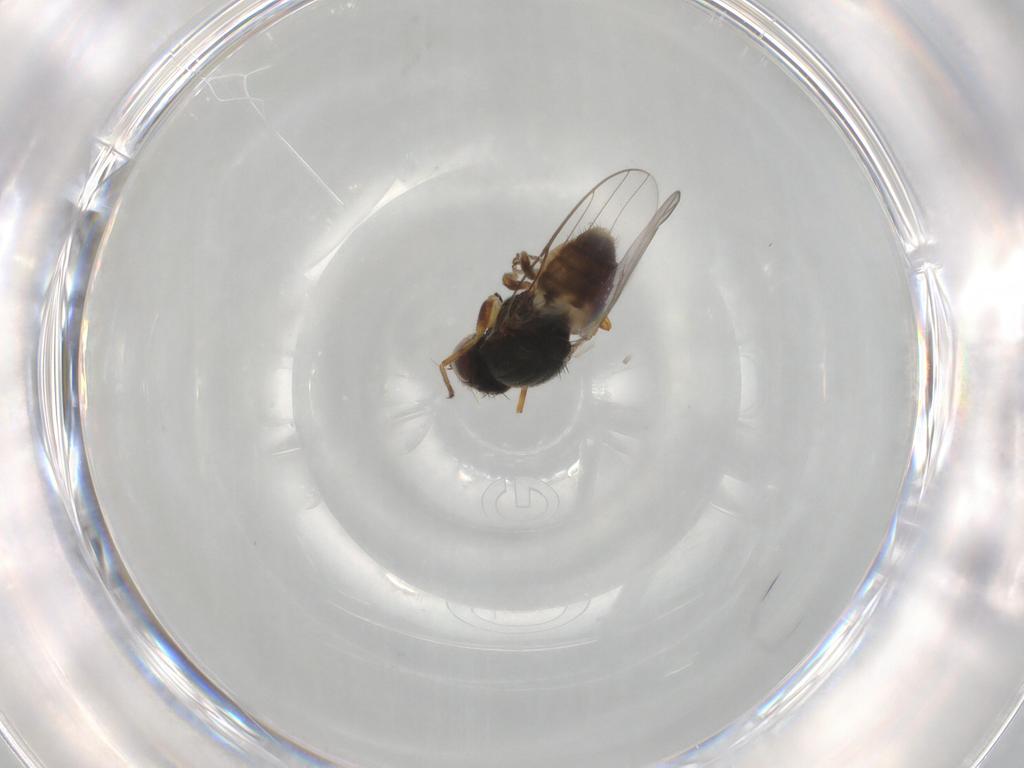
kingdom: Animalia
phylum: Arthropoda
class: Insecta
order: Diptera
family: Chloropidae
